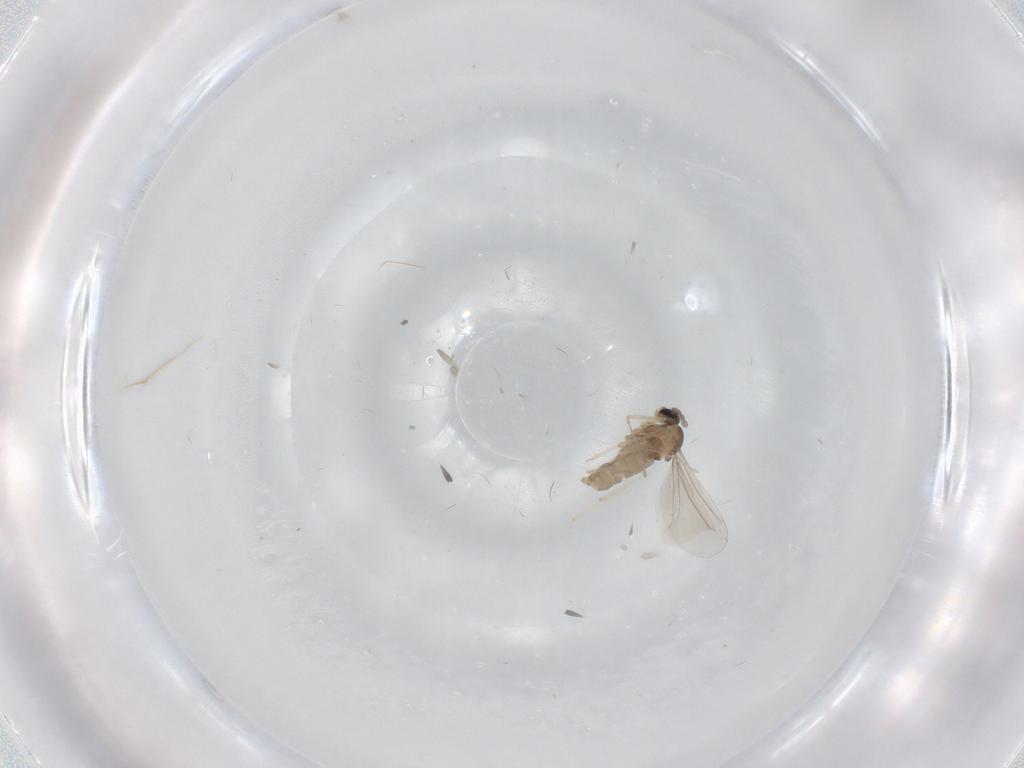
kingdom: Animalia
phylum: Arthropoda
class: Insecta
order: Diptera
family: Cecidomyiidae
